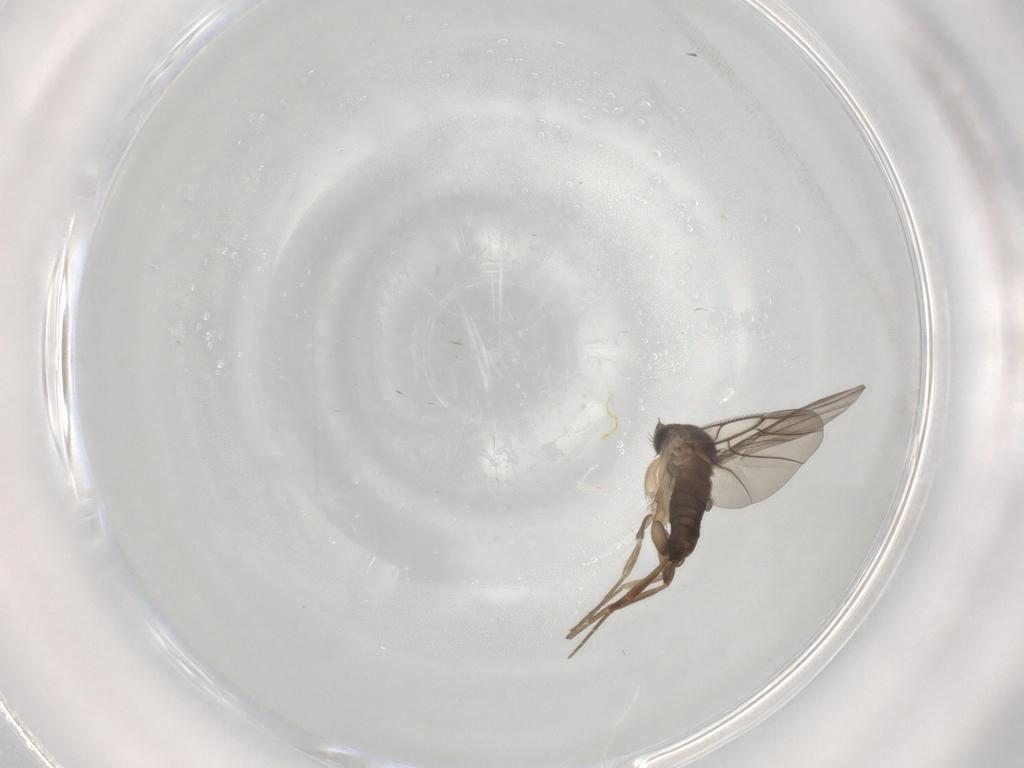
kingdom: Animalia
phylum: Arthropoda
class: Insecta
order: Diptera
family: Phoridae
